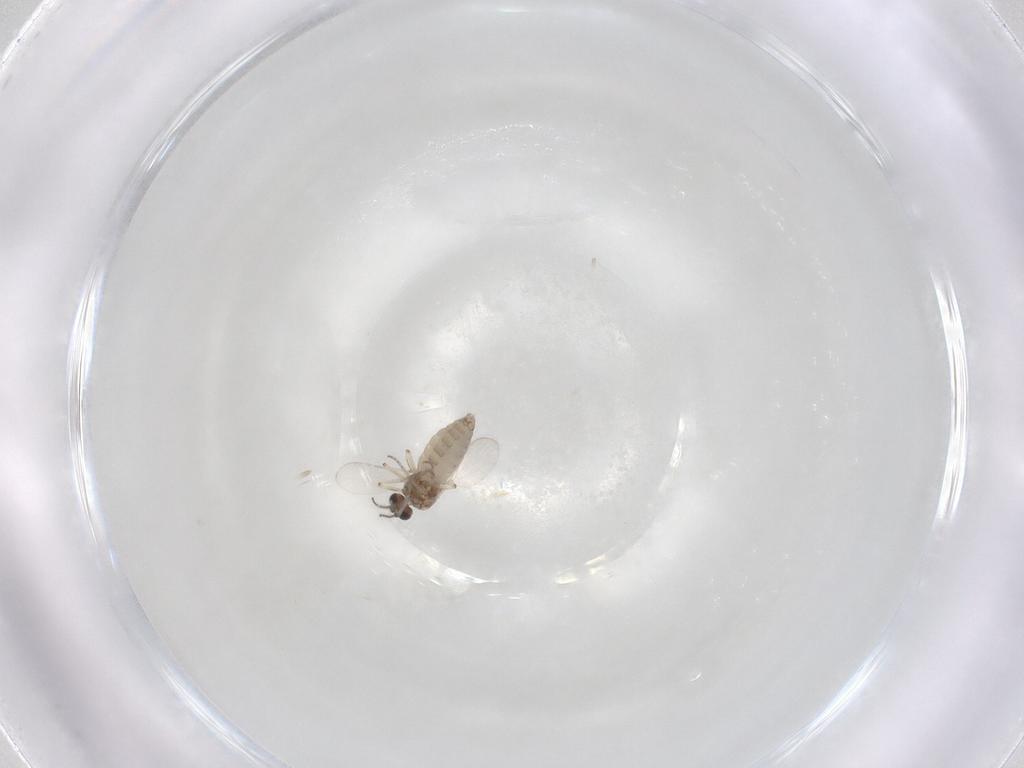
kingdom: Animalia
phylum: Arthropoda
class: Insecta
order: Diptera
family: Ceratopogonidae
